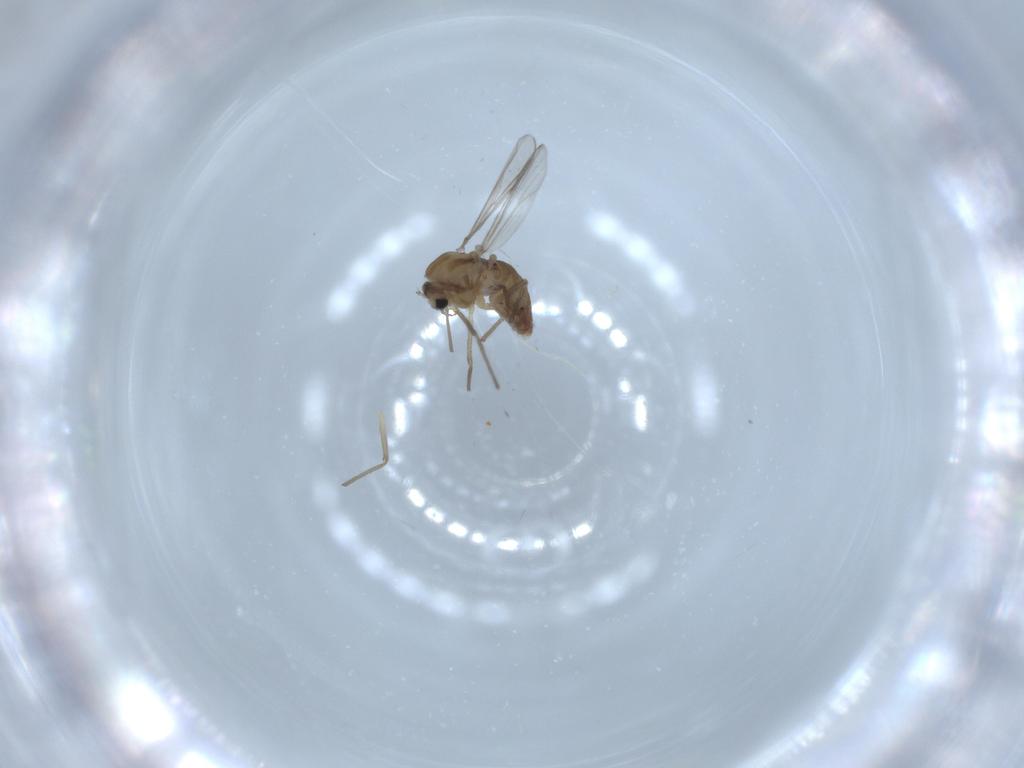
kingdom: Animalia
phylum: Arthropoda
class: Insecta
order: Diptera
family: Chironomidae
